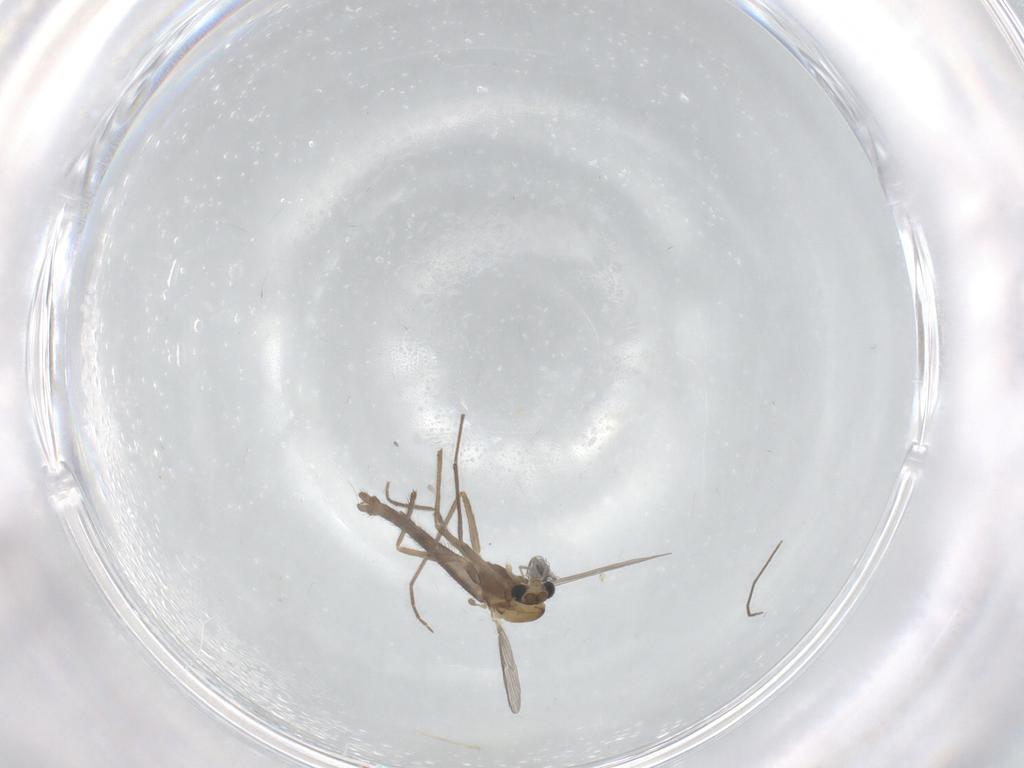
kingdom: Animalia
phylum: Arthropoda
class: Insecta
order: Diptera
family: Chironomidae
